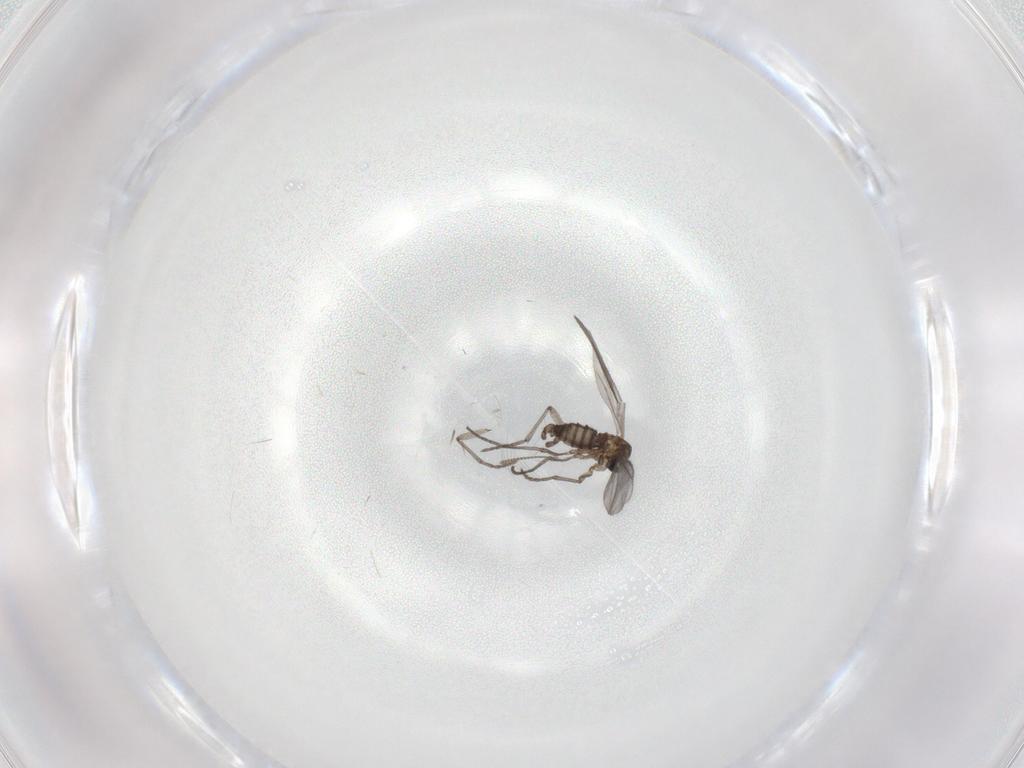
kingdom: Animalia
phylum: Arthropoda
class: Insecta
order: Diptera
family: Sciaridae
